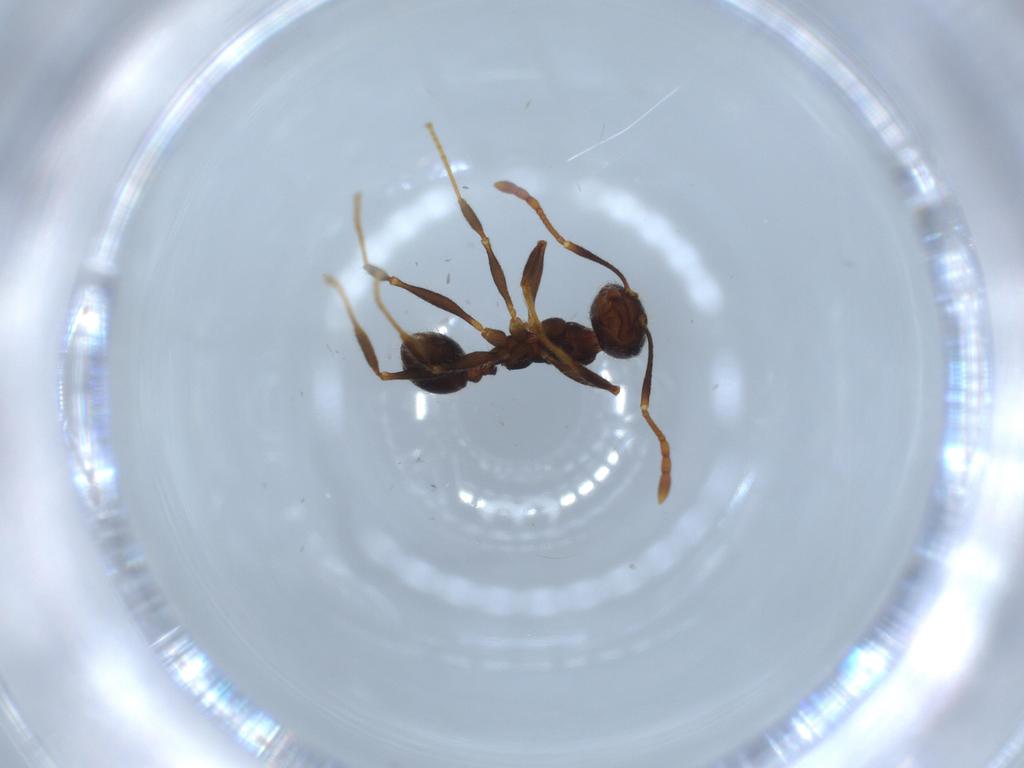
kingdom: Animalia
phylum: Arthropoda
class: Insecta
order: Hymenoptera
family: Formicidae
